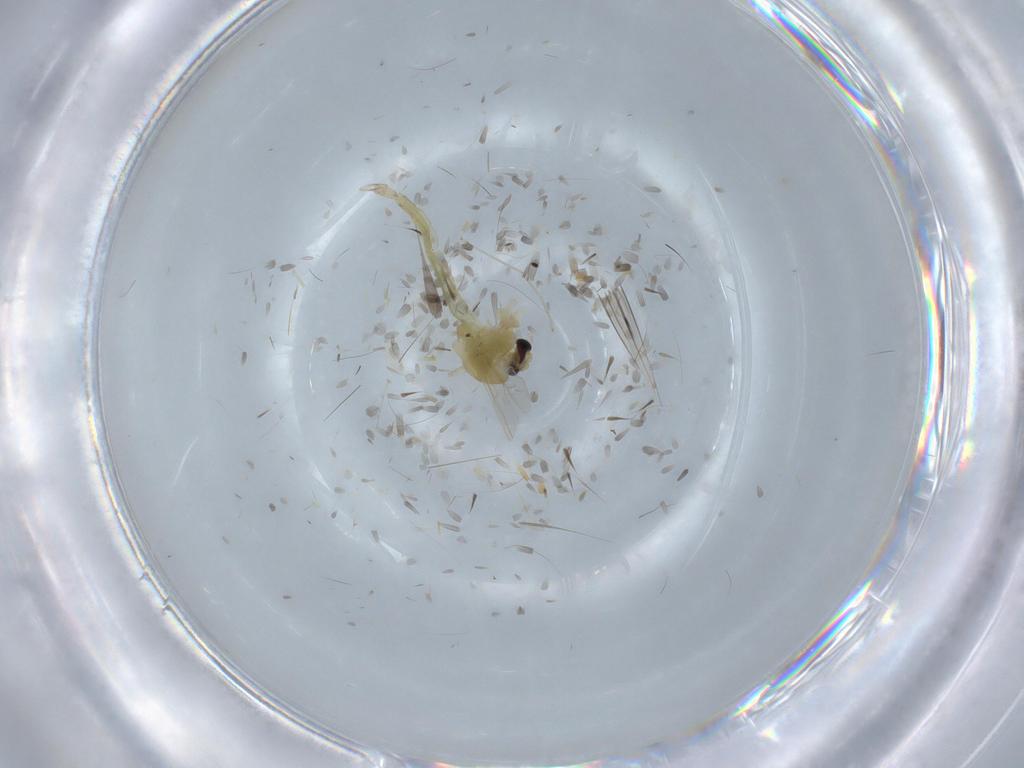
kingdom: Animalia
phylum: Arthropoda
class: Insecta
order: Diptera
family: Chironomidae
